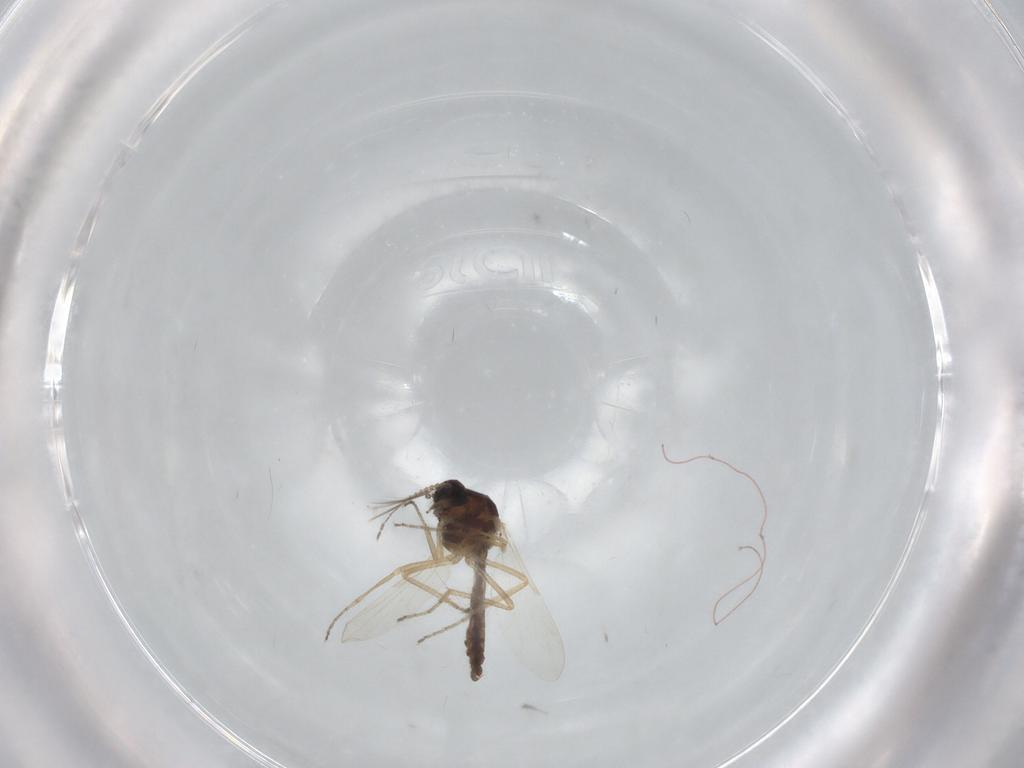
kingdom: Animalia
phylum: Arthropoda
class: Insecta
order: Diptera
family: Ceratopogonidae
